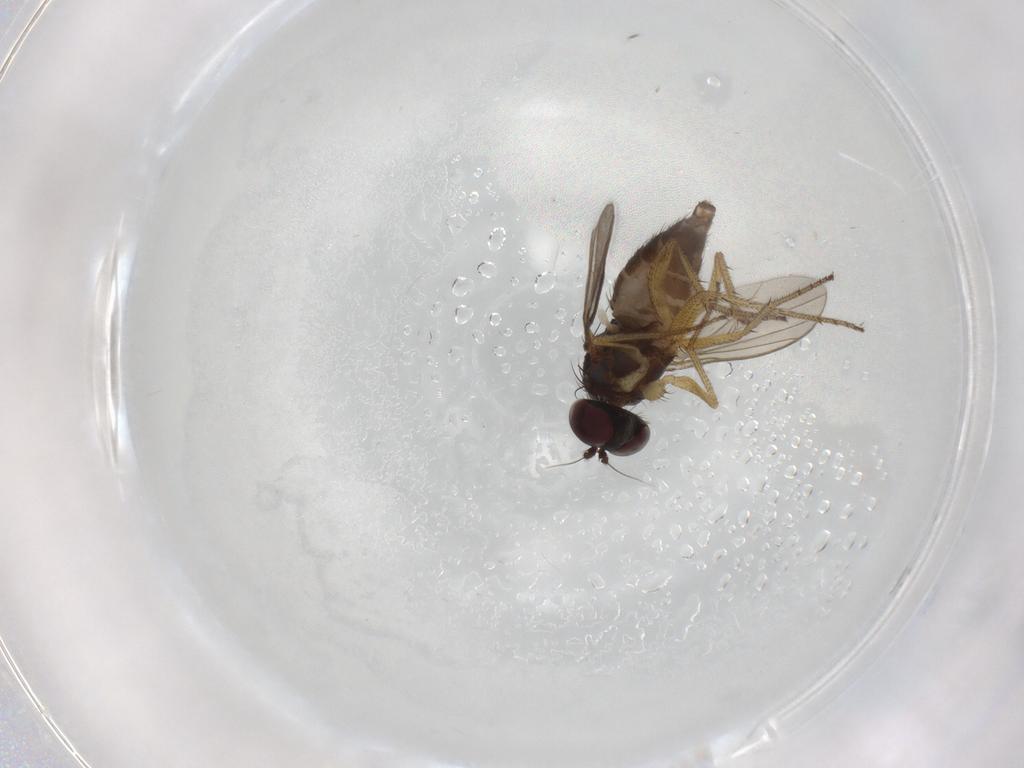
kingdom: Animalia
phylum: Arthropoda
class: Insecta
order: Diptera
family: Dolichopodidae
